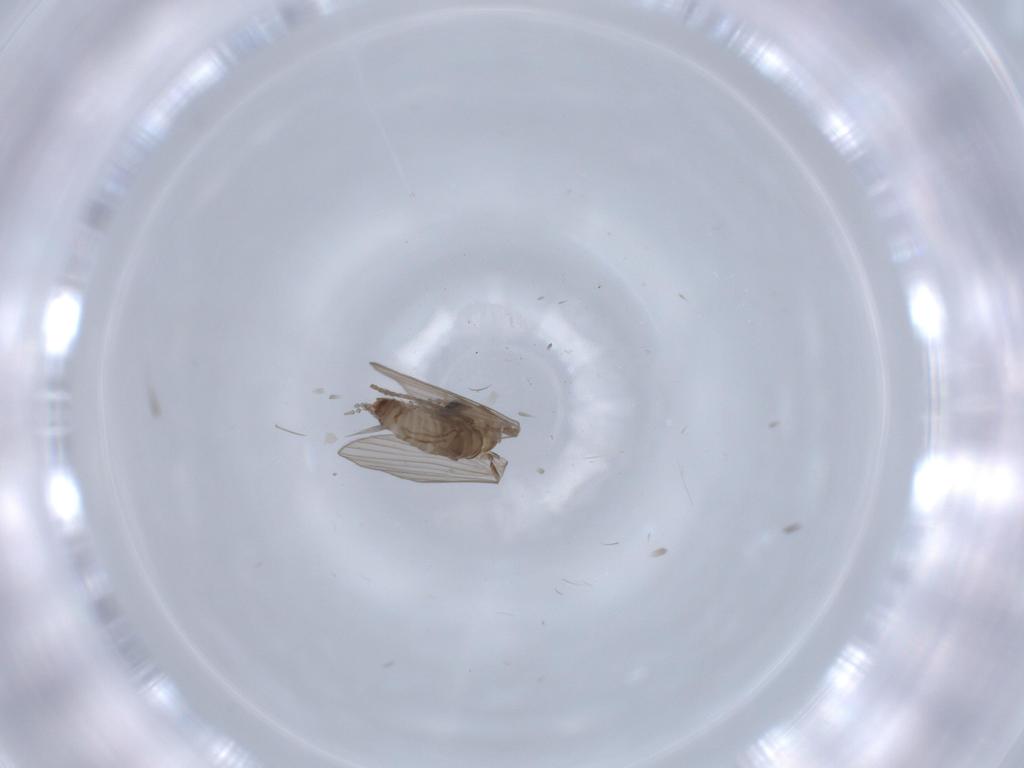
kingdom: Animalia
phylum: Arthropoda
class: Insecta
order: Diptera
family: Psychodidae
